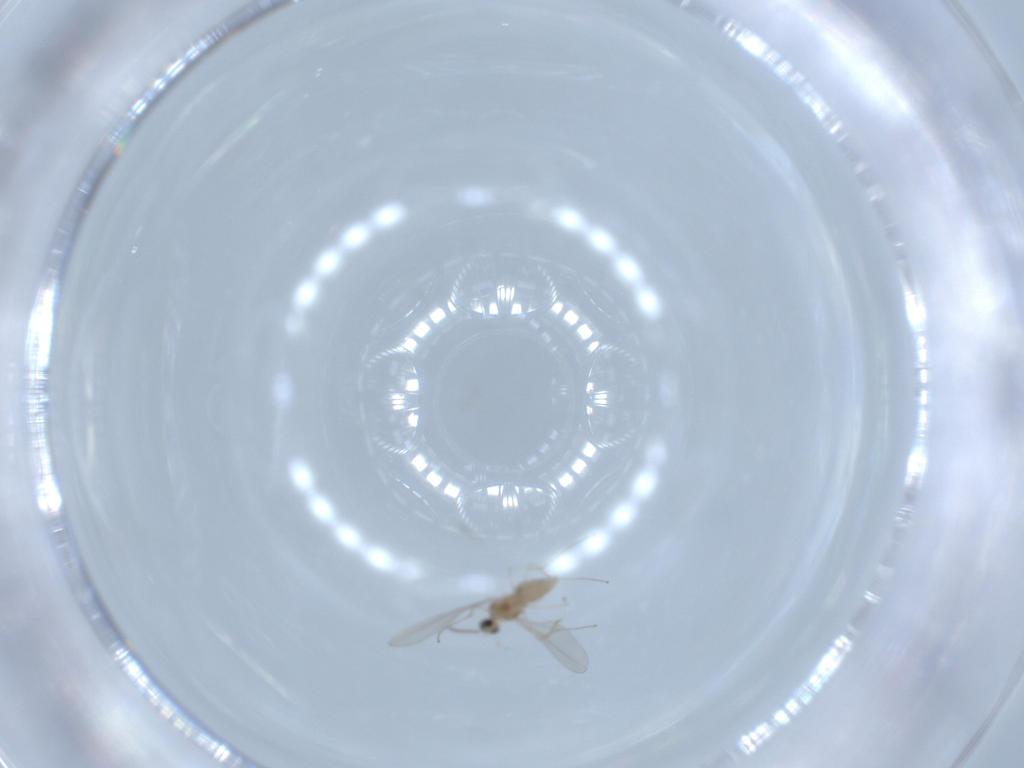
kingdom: Animalia
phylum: Arthropoda
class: Insecta
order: Diptera
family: Cecidomyiidae
